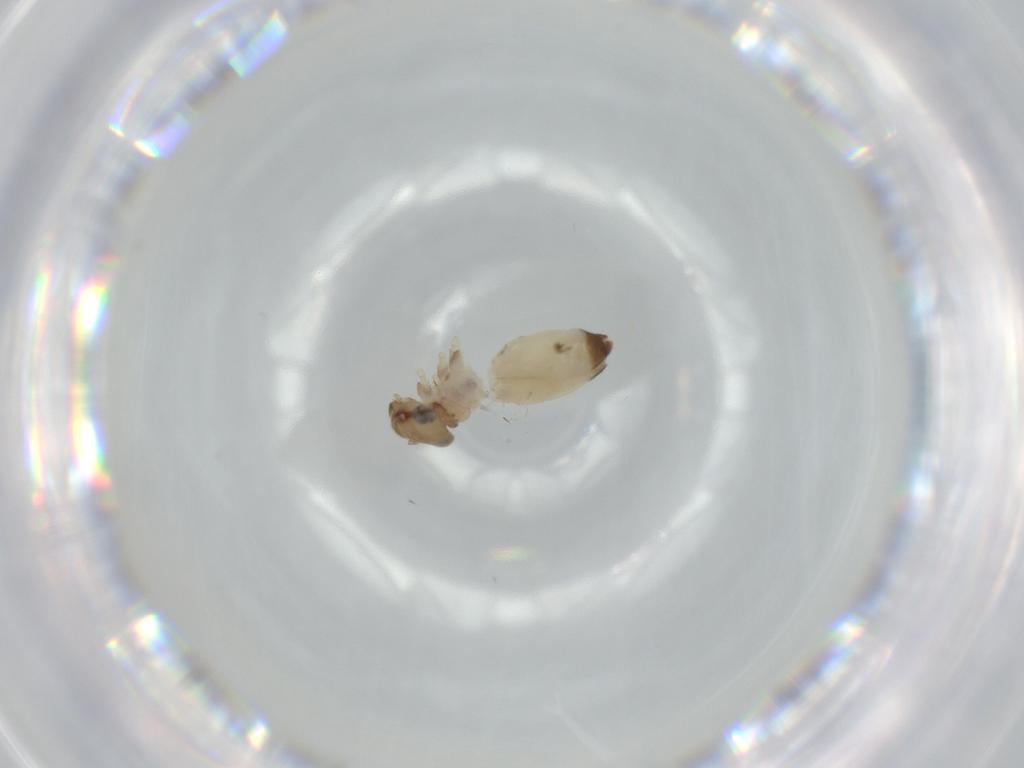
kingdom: Animalia
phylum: Arthropoda
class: Insecta
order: Psocodea
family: Lepidopsocidae
